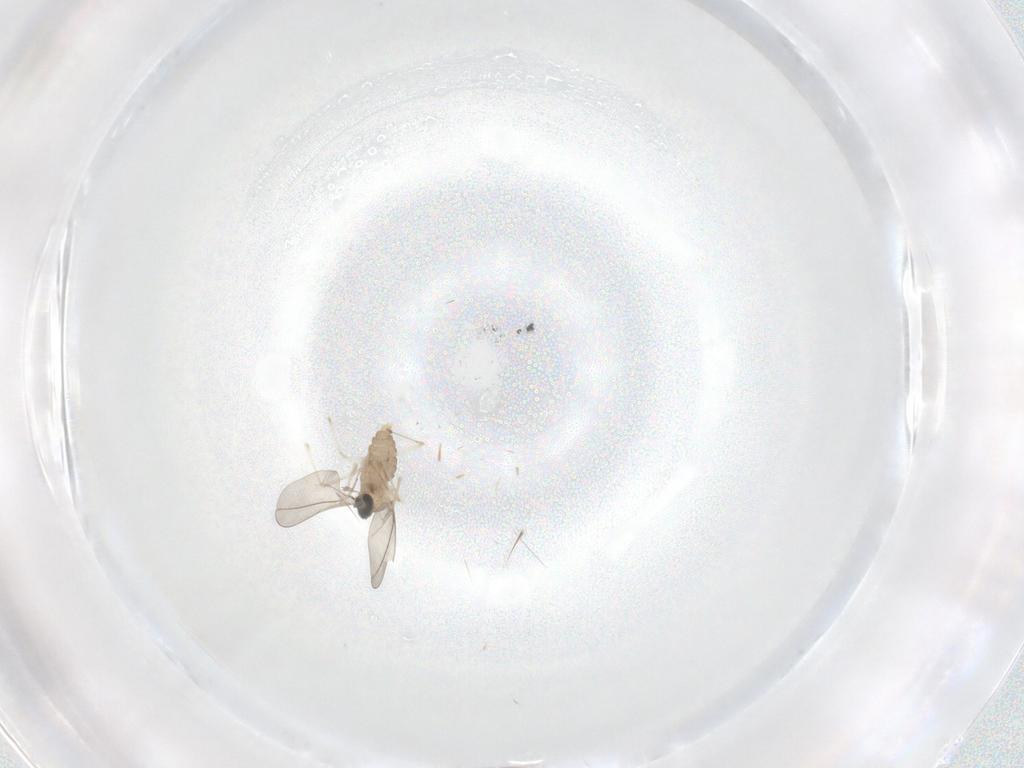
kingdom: Animalia
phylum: Arthropoda
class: Insecta
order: Diptera
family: Cecidomyiidae
